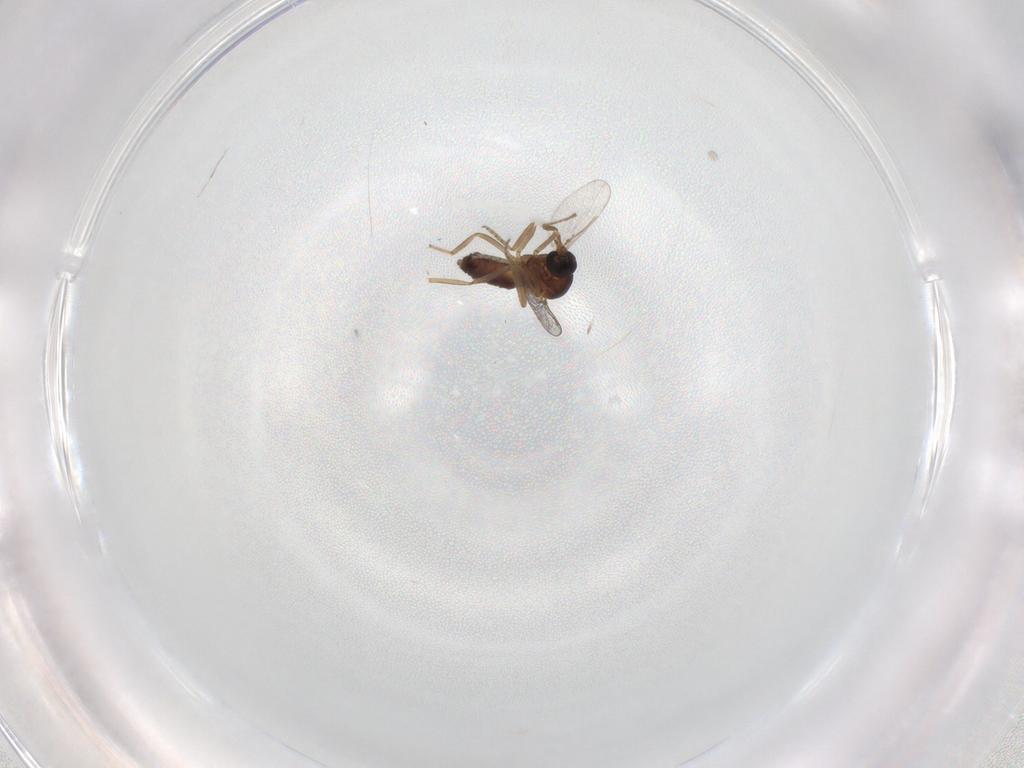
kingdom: Animalia
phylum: Arthropoda
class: Insecta
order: Diptera
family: Ceratopogonidae
